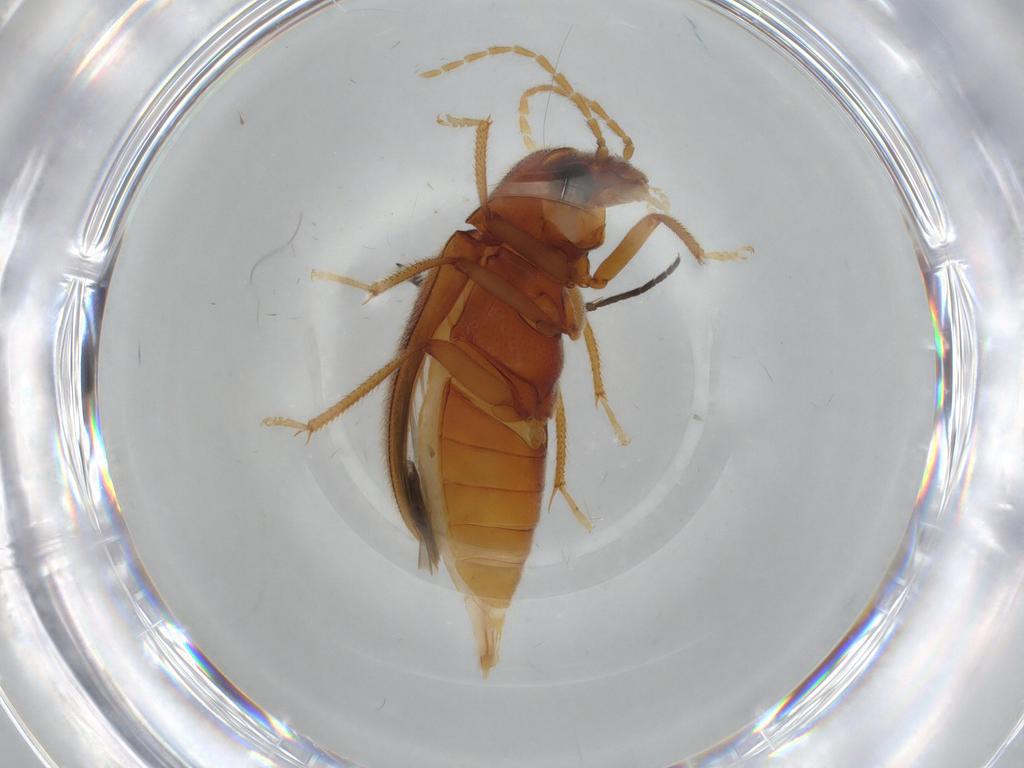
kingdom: Animalia
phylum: Arthropoda
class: Insecta
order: Coleoptera
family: Ptilodactylidae
